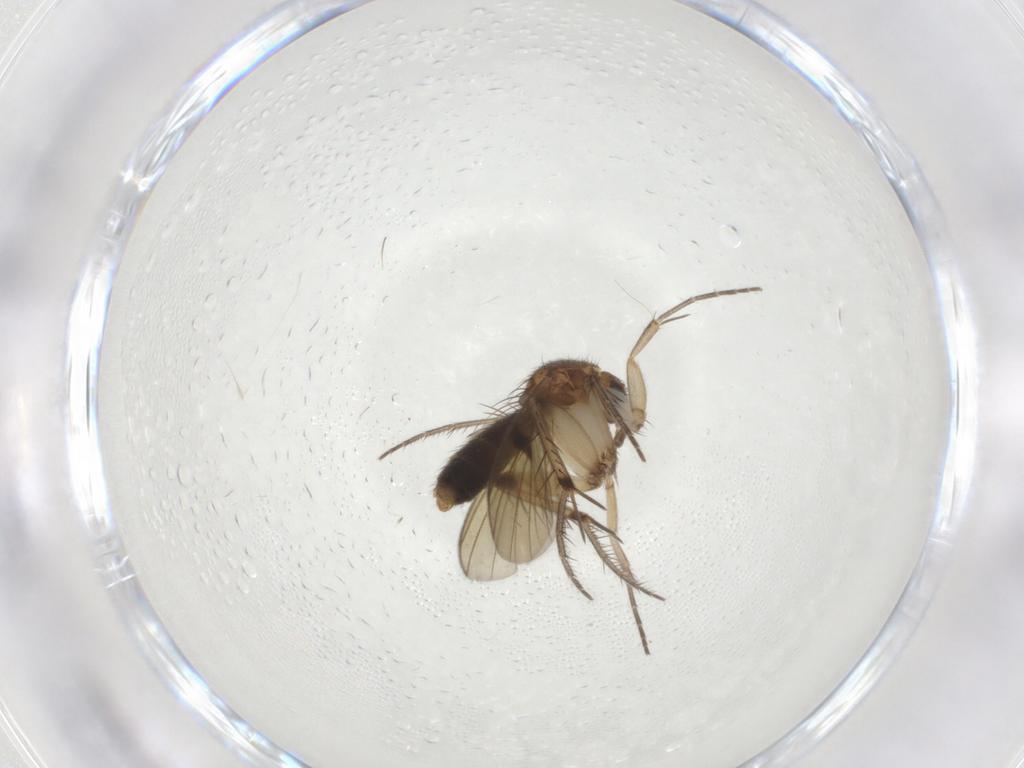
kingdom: Animalia
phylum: Arthropoda
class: Insecta
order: Diptera
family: Mycetophilidae
